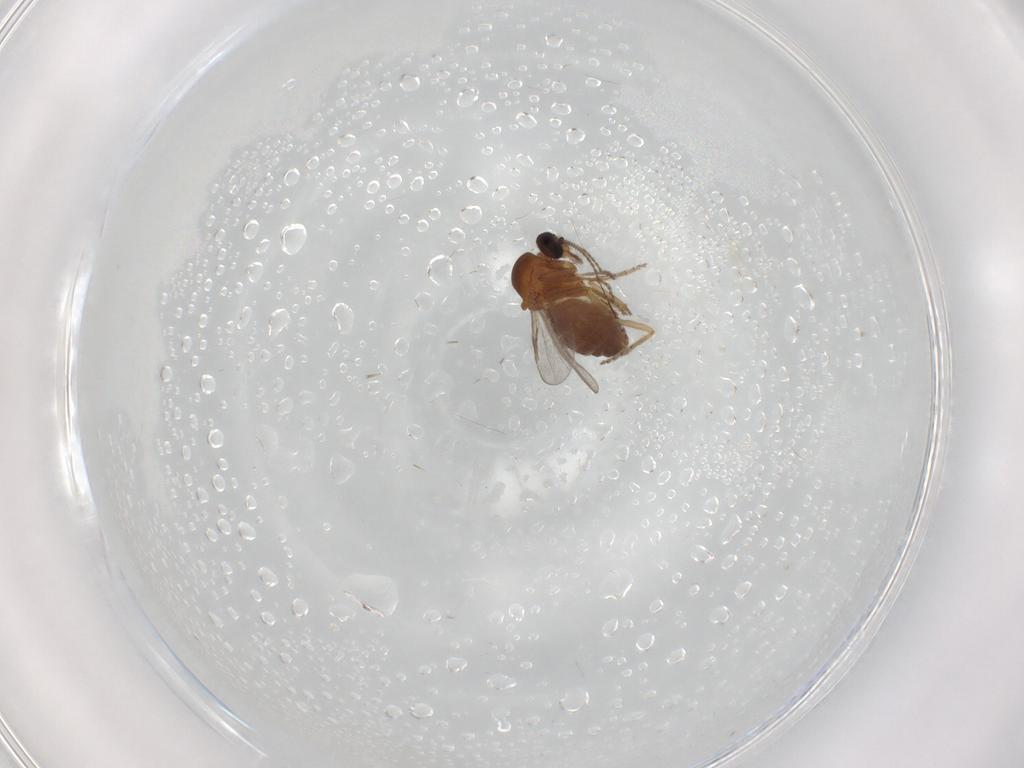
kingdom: Animalia
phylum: Arthropoda
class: Insecta
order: Diptera
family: Ceratopogonidae
